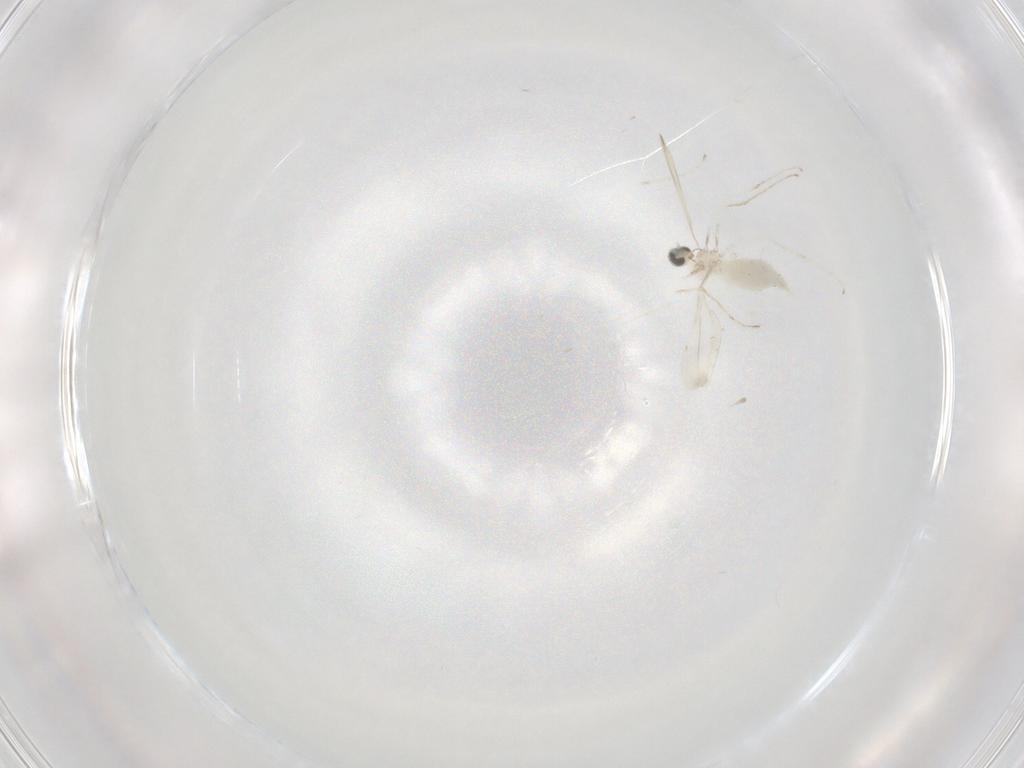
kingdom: Animalia
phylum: Arthropoda
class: Insecta
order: Diptera
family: Cecidomyiidae
